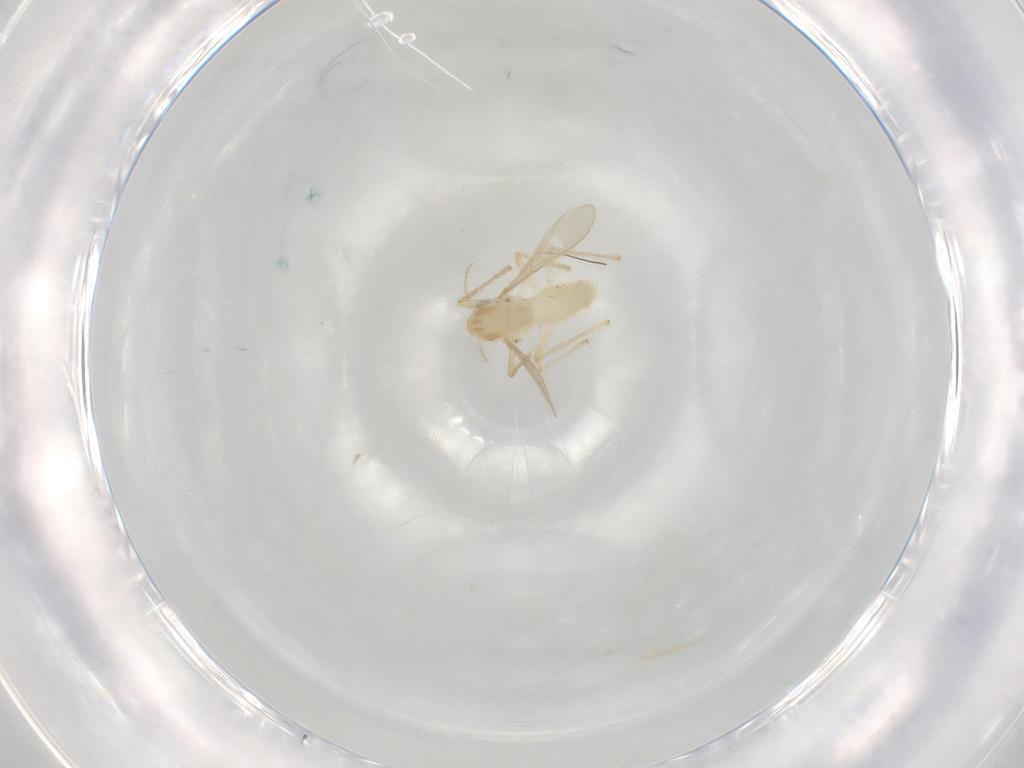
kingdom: Animalia
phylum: Arthropoda
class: Insecta
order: Diptera
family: Chironomidae
